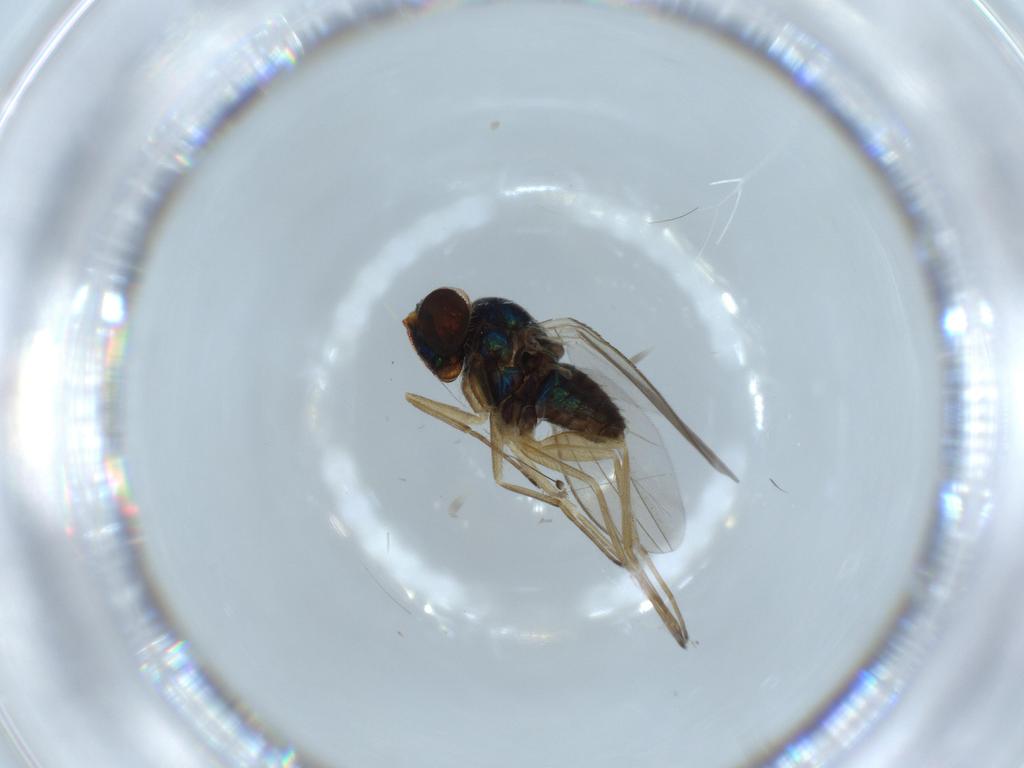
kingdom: Animalia
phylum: Arthropoda
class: Insecta
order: Diptera
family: Dolichopodidae
